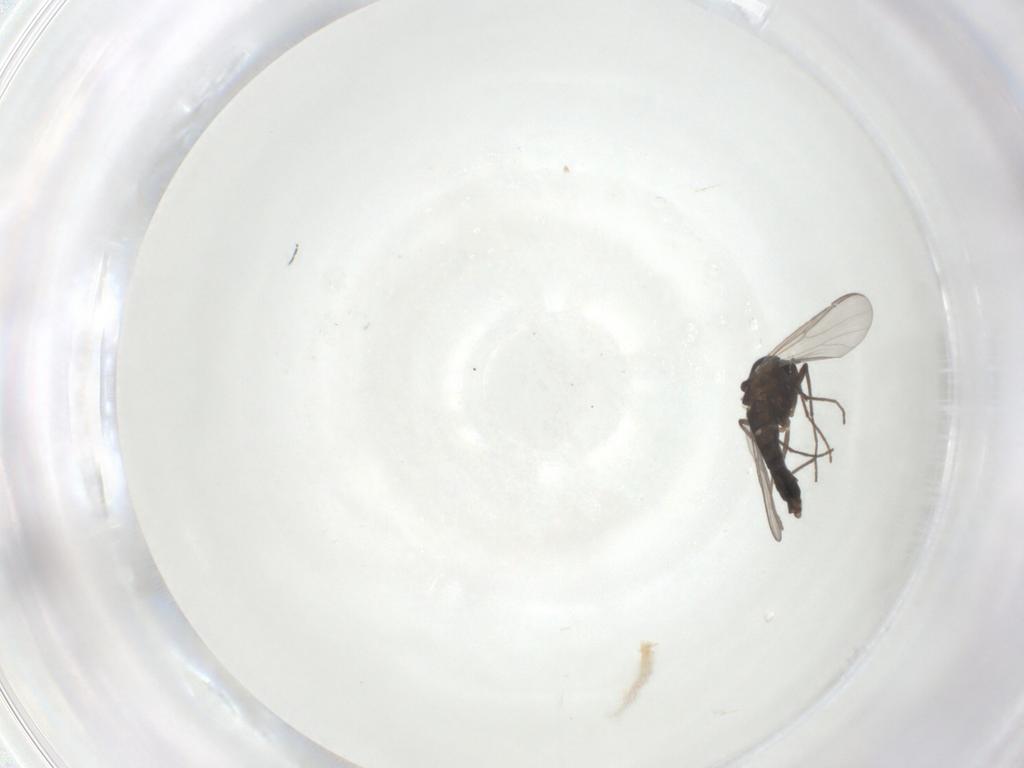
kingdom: Animalia
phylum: Arthropoda
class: Insecta
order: Diptera
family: Chironomidae
